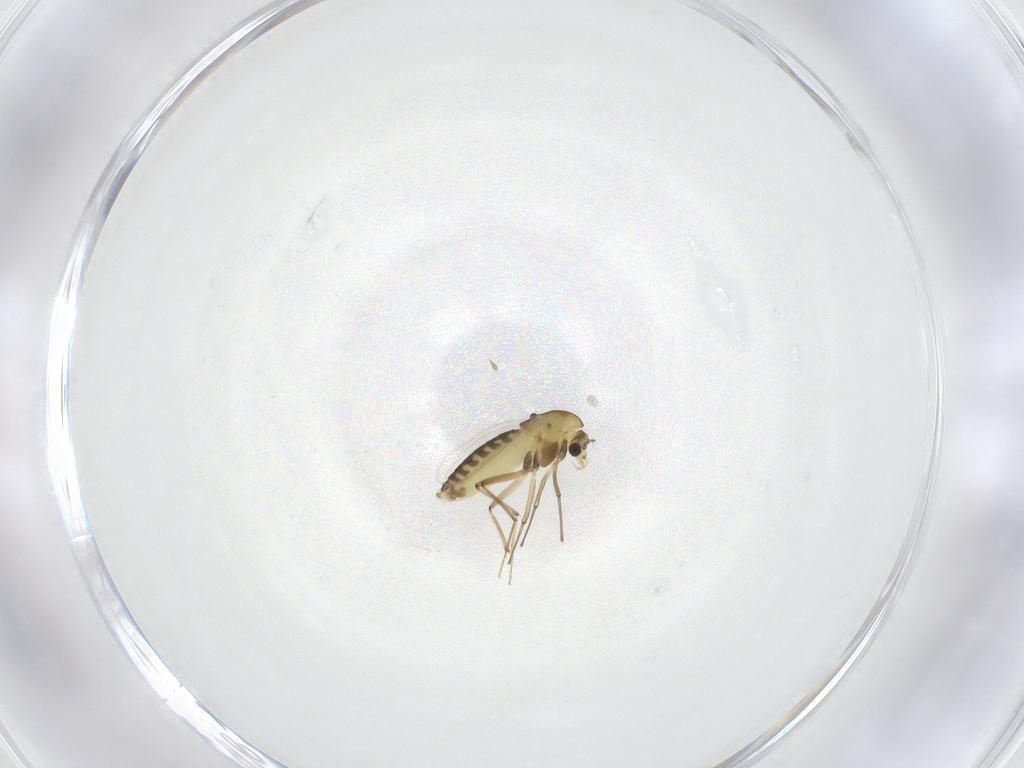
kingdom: Animalia
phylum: Arthropoda
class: Insecta
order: Diptera
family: Chironomidae
